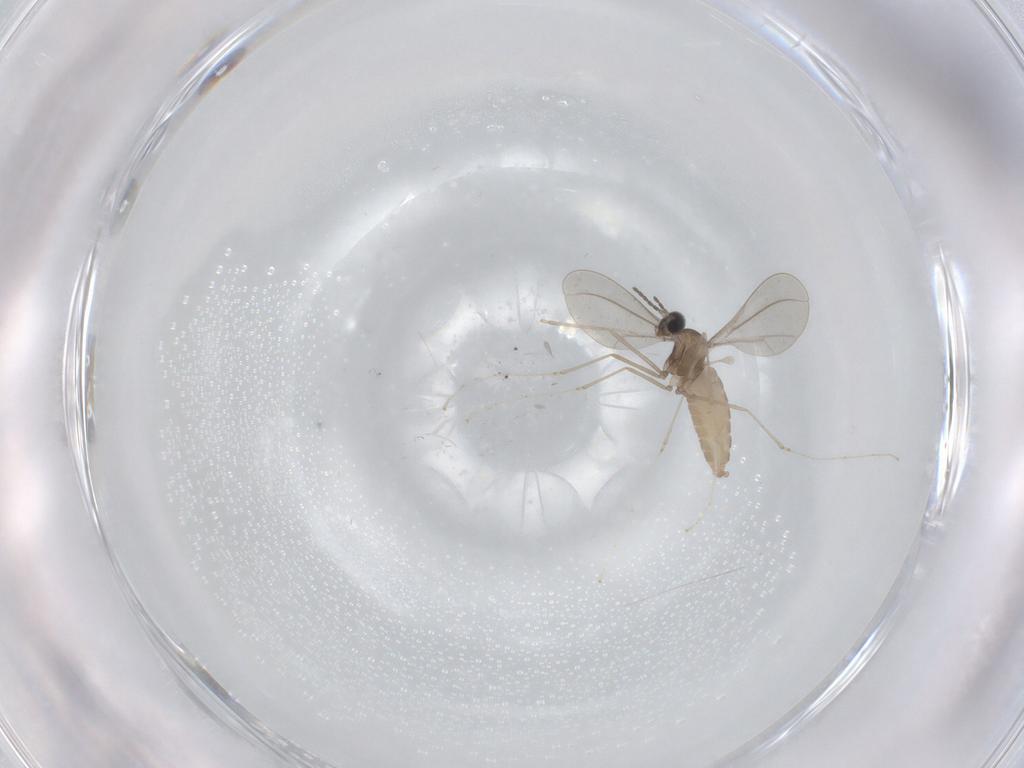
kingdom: Animalia
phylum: Arthropoda
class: Insecta
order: Diptera
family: Cecidomyiidae
